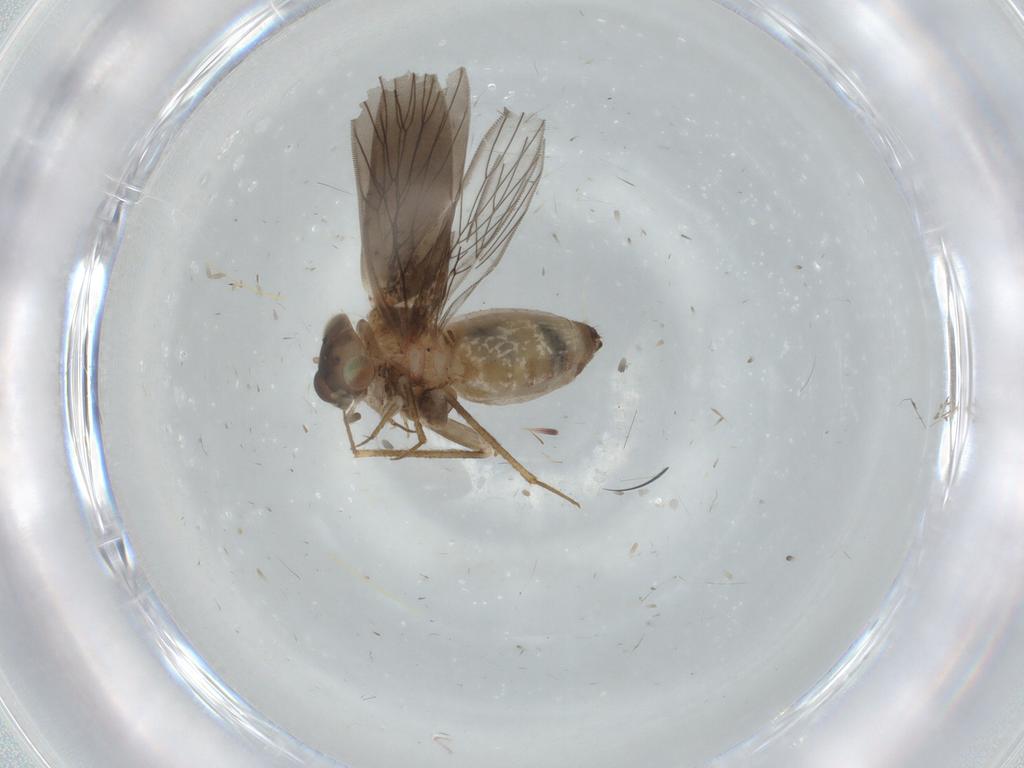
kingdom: Animalia
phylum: Arthropoda
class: Insecta
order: Psocodea
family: Lepidopsocidae
